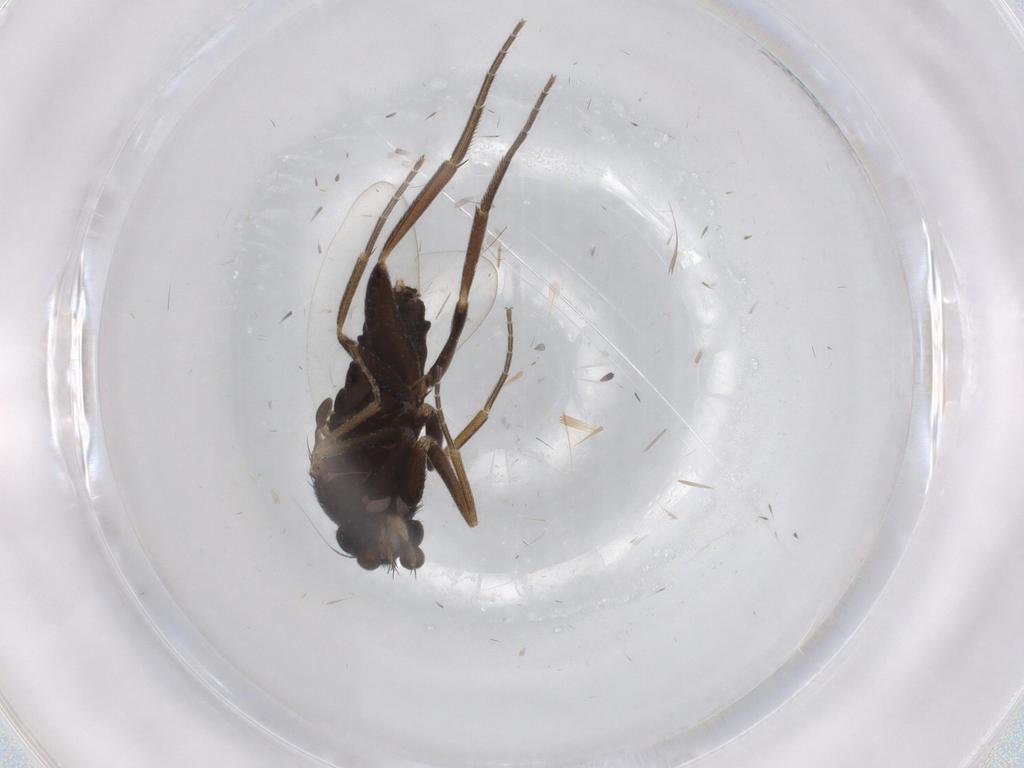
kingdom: Animalia
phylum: Arthropoda
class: Insecta
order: Diptera
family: Phoridae
